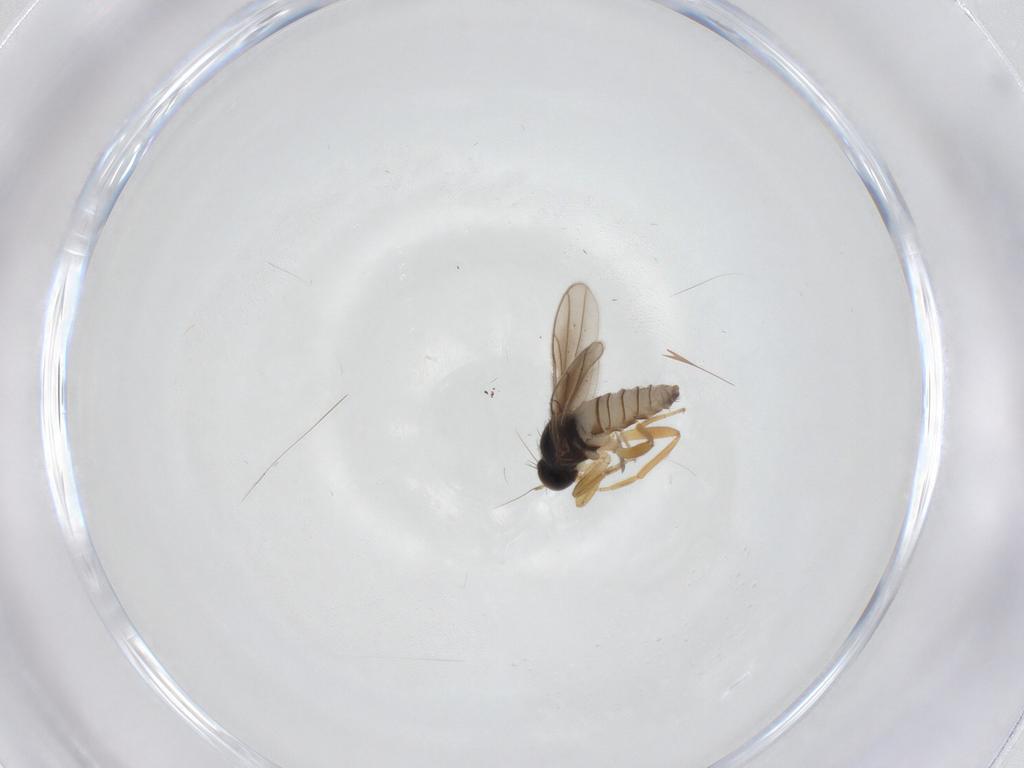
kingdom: Animalia
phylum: Arthropoda
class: Insecta
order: Diptera
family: Hybotidae
